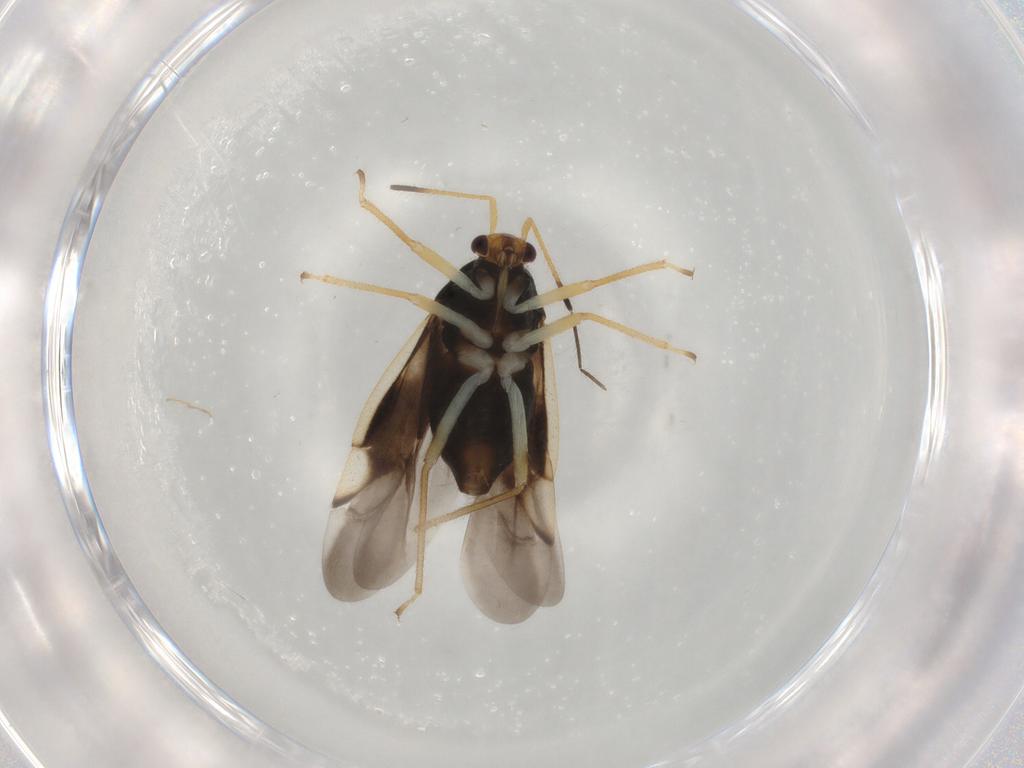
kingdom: Animalia
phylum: Arthropoda
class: Insecta
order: Hemiptera
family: Miridae
